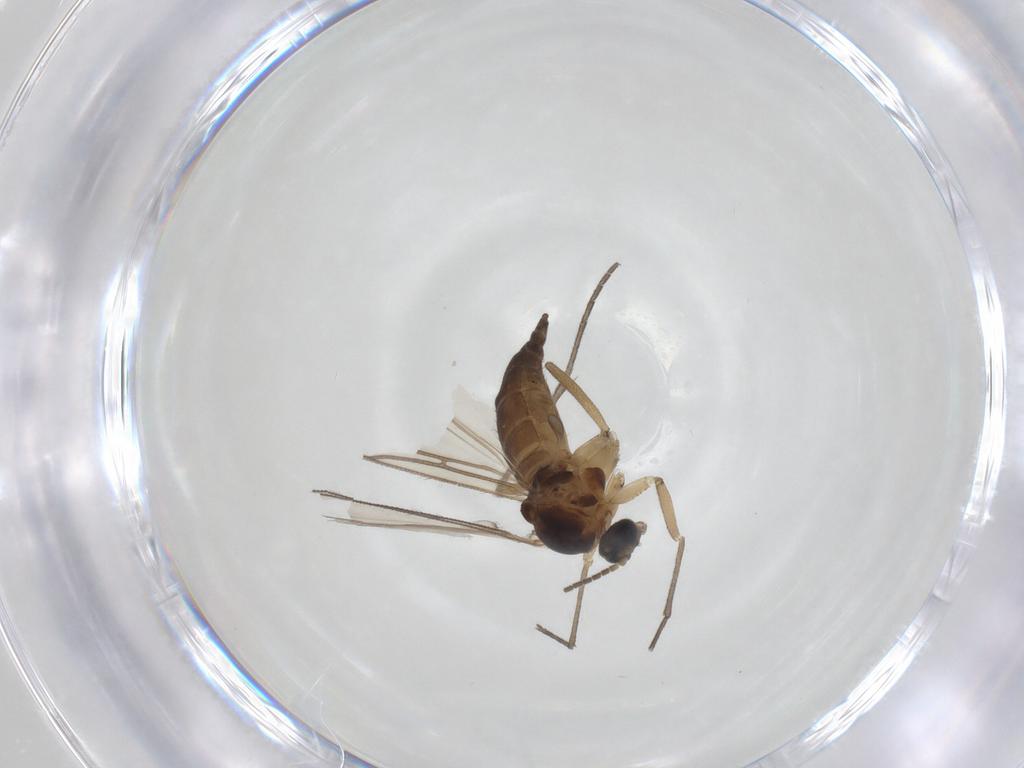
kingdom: Animalia
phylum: Arthropoda
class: Insecta
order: Diptera
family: Sciaridae
